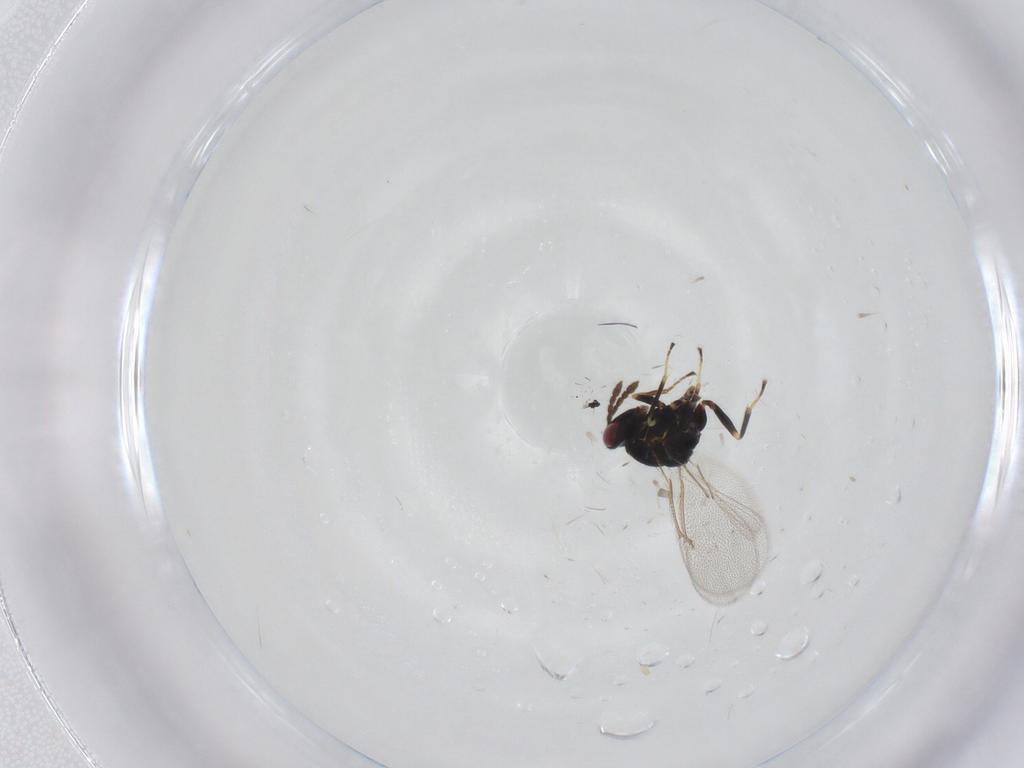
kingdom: Animalia
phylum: Arthropoda
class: Insecta
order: Hymenoptera
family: Eulophidae
